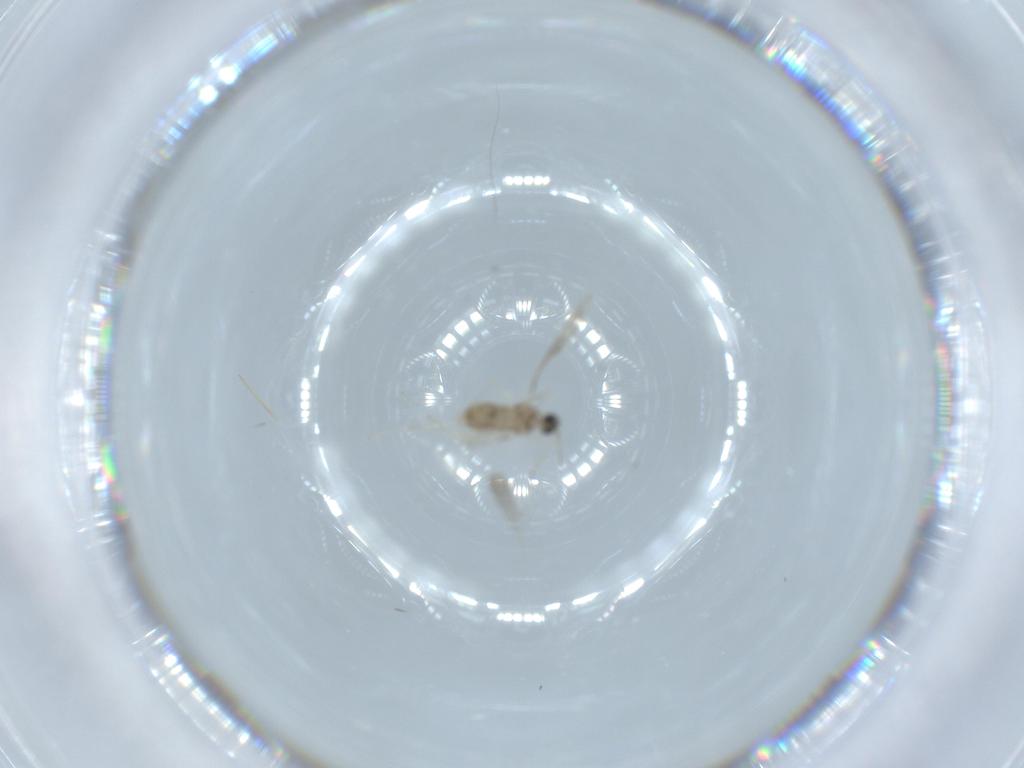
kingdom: Animalia
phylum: Arthropoda
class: Insecta
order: Diptera
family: Cecidomyiidae
